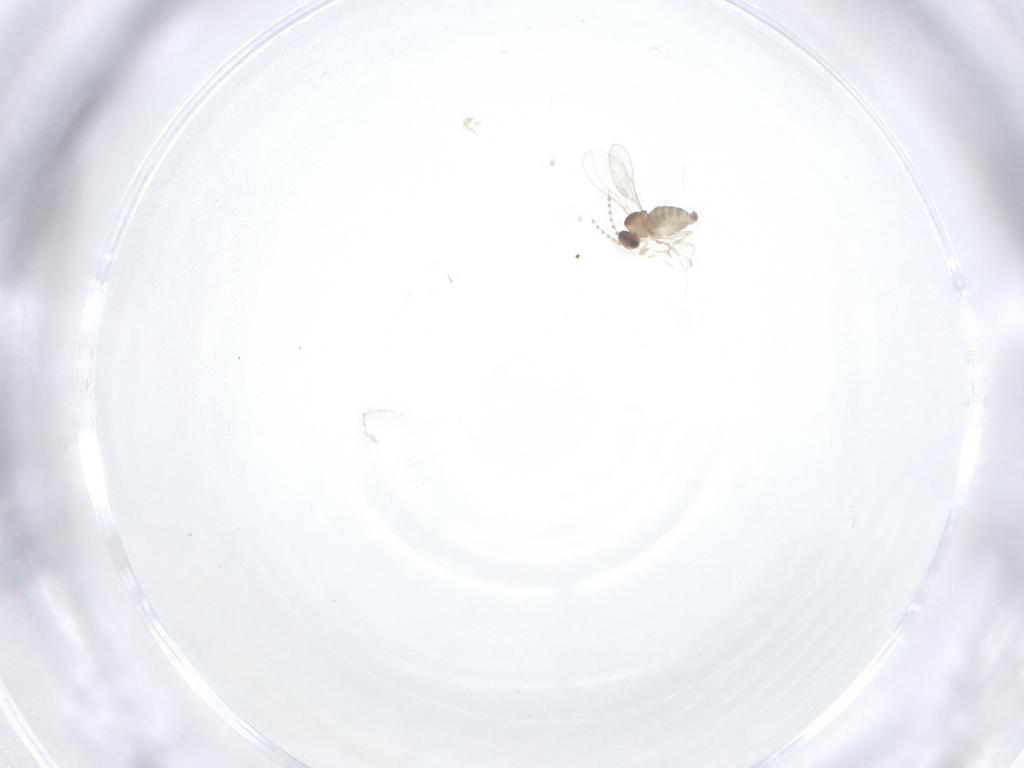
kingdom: Animalia
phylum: Arthropoda
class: Insecta
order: Diptera
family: Cecidomyiidae
